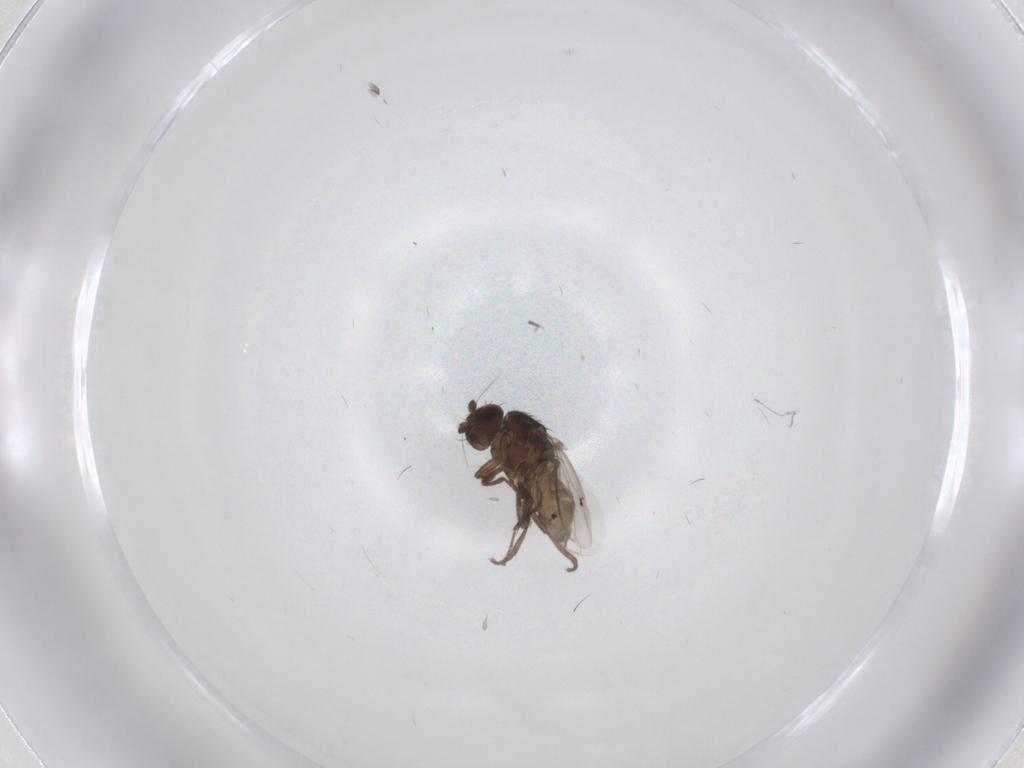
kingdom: Animalia
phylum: Arthropoda
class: Insecta
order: Diptera
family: Sphaeroceridae
